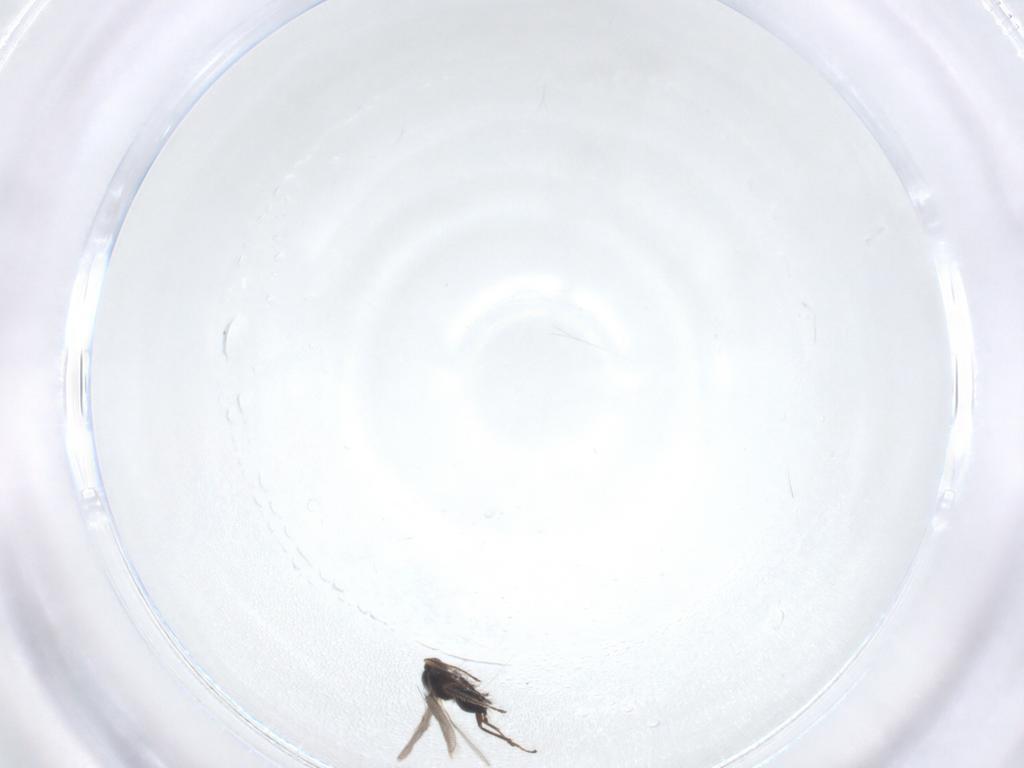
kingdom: Animalia
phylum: Arthropoda
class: Insecta
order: Hymenoptera
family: Mymaridae
